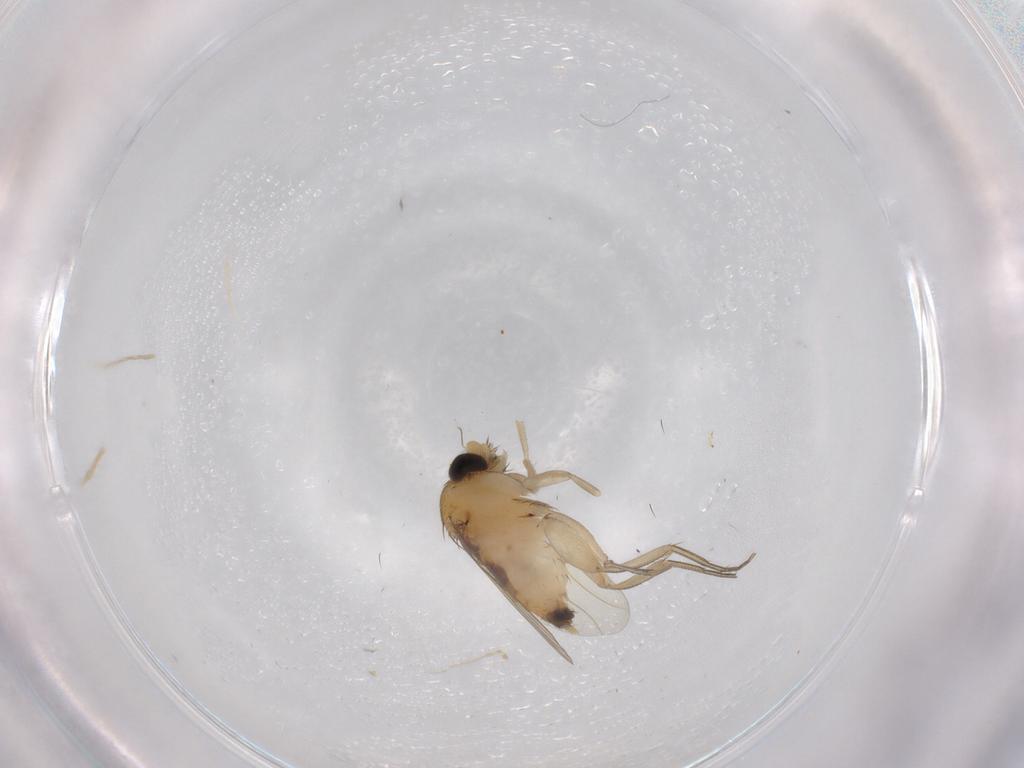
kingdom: Animalia
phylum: Arthropoda
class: Insecta
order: Diptera
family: Phoridae
